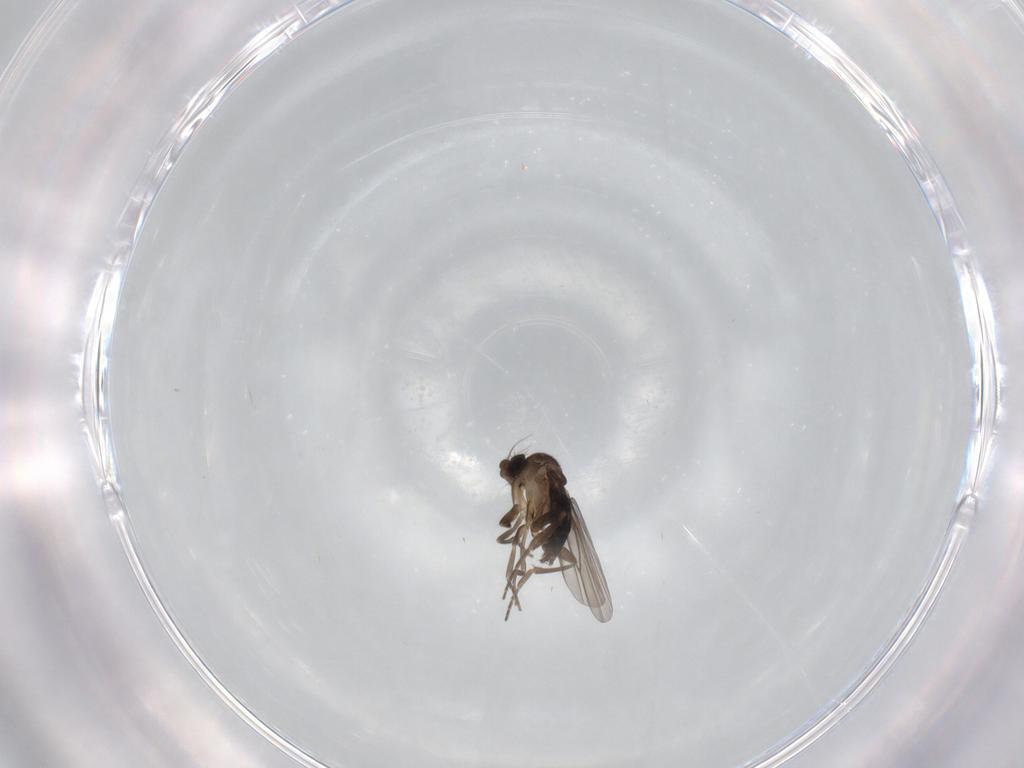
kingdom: Animalia
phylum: Arthropoda
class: Insecta
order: Diptera
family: Phoridae
